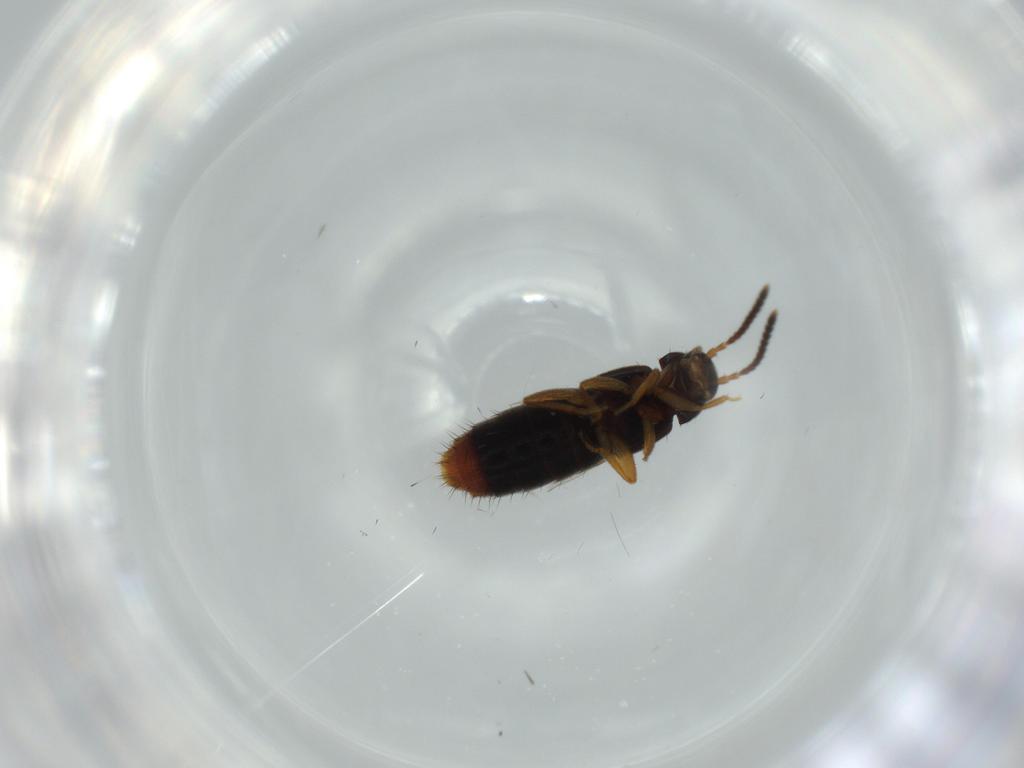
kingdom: Animalia
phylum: Arthropoda
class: Insecta
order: Coleoptera
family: Staphylinidae
